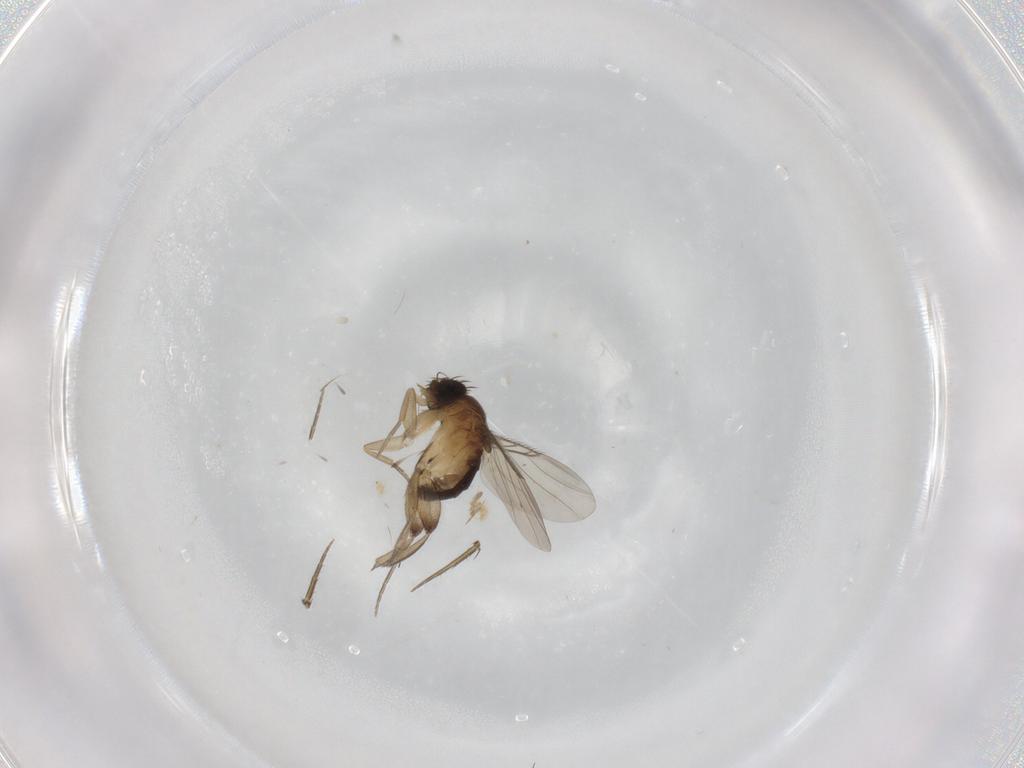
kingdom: Animalia
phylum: Arthropoda
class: Insecta
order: Diptera
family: Phoridae
